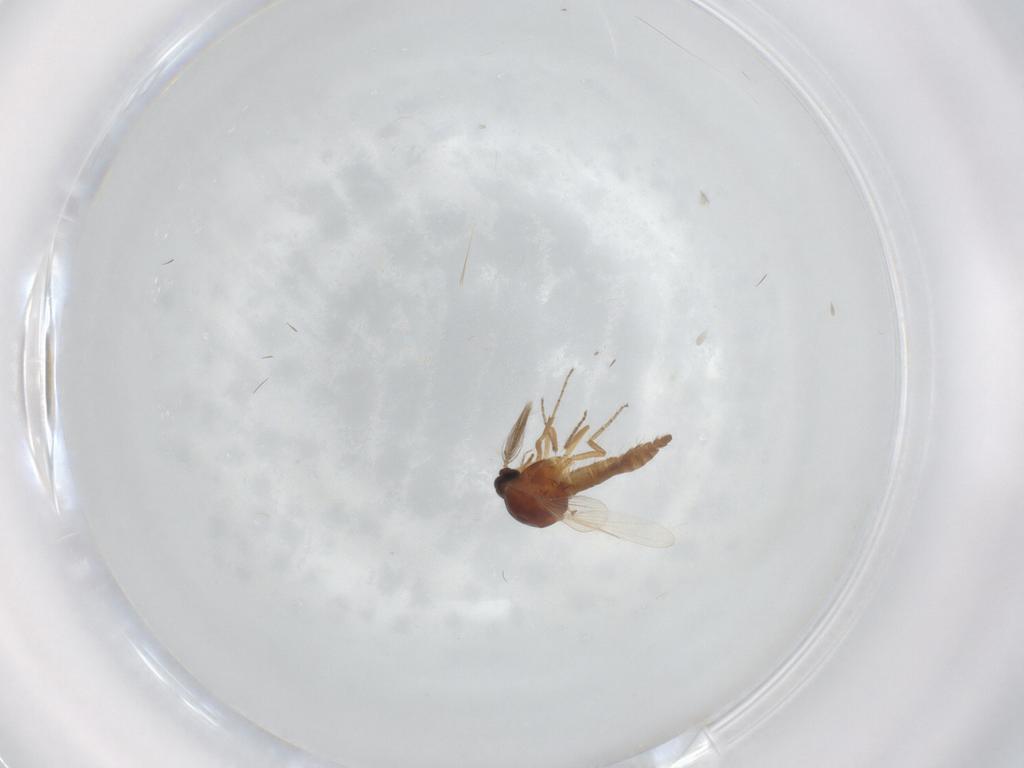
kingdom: Animalia
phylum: Arthropoda
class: Insecta
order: Diptera
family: Ceratopogonidae
